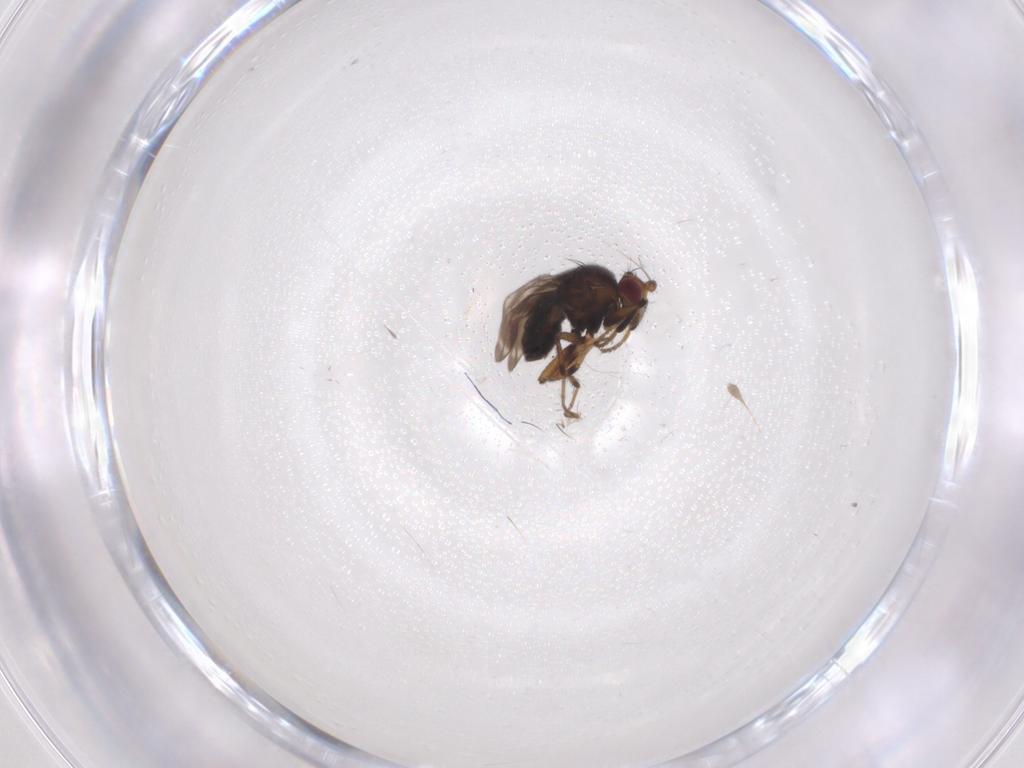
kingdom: Animalia
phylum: Arthropoda
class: Insecta
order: Diptera
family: Sphaeroceridae
